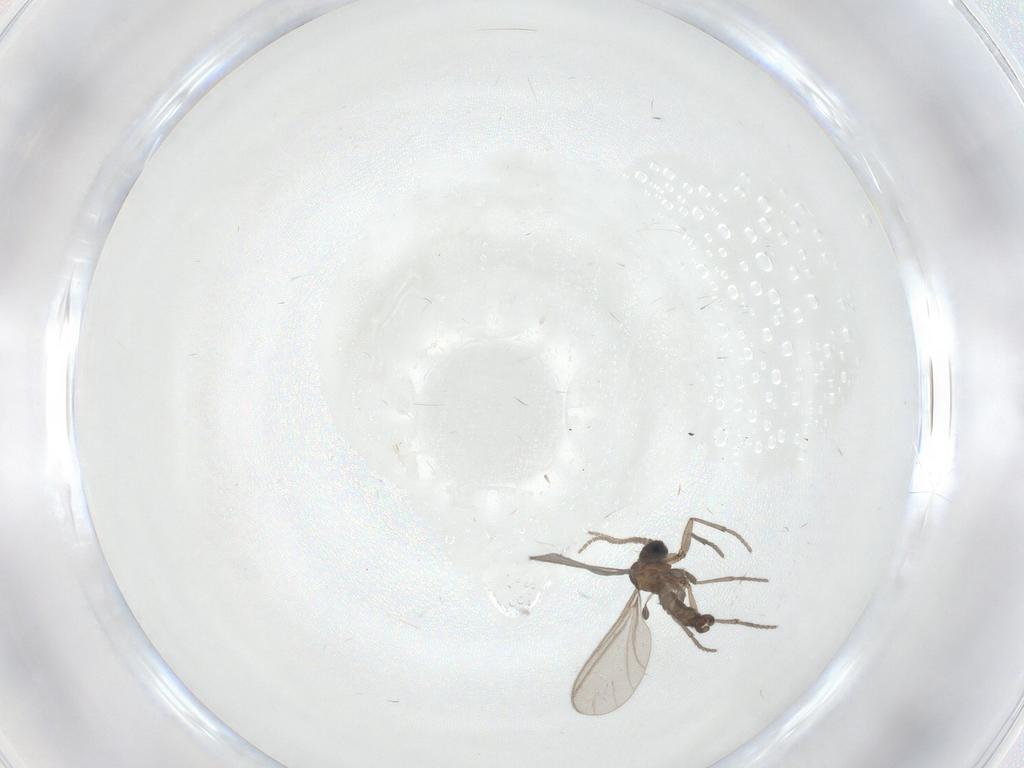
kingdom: Animalia
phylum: Arthropoda
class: Insecta
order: Diptera
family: Sciaridae
